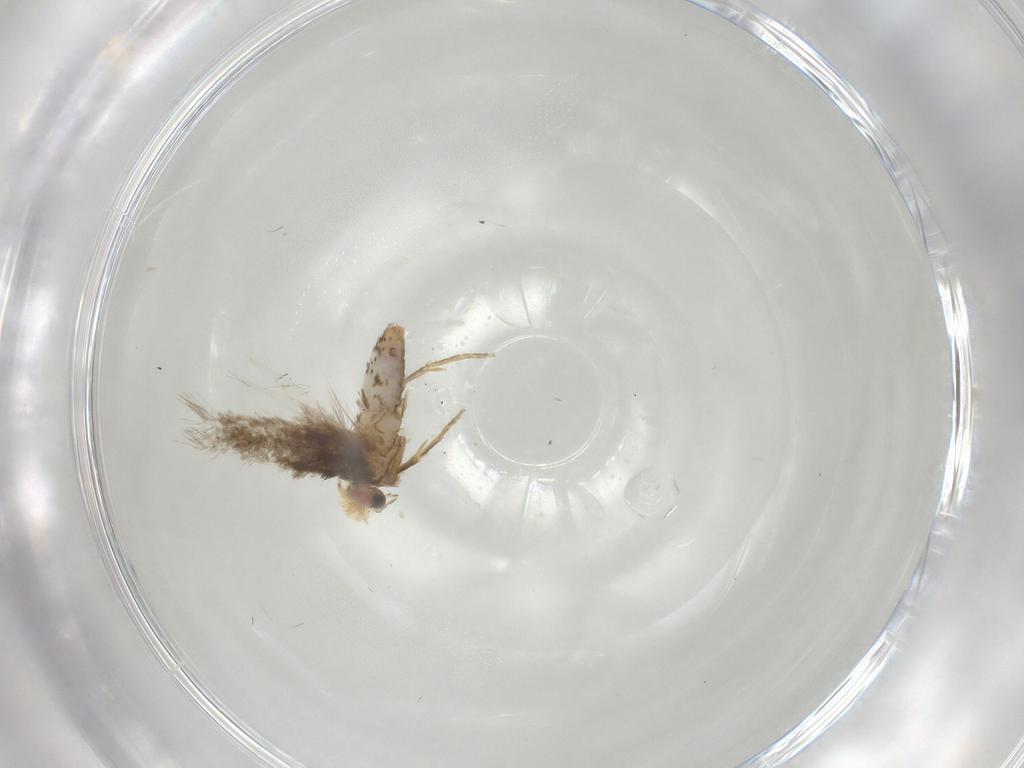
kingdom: Animalia
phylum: Arthropoda
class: Insecta
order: Lepidoptera
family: Nepticulidae
